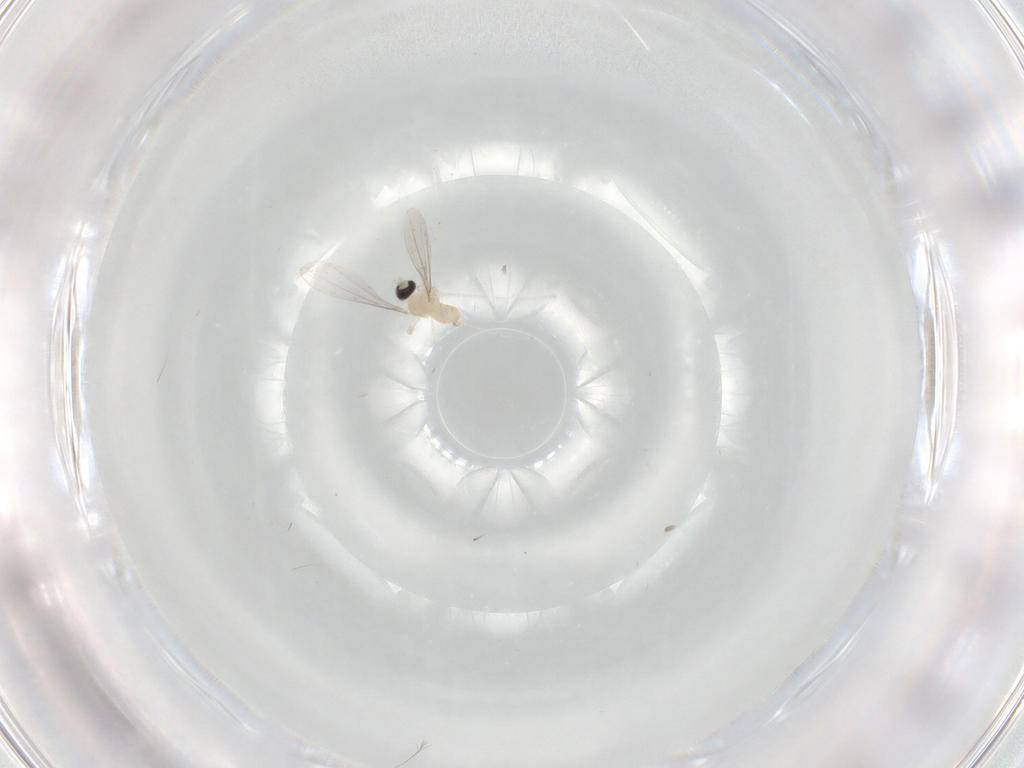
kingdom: Animalia
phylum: Arthropoda
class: Insecta
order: Diptera
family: Cecidomyiidae
